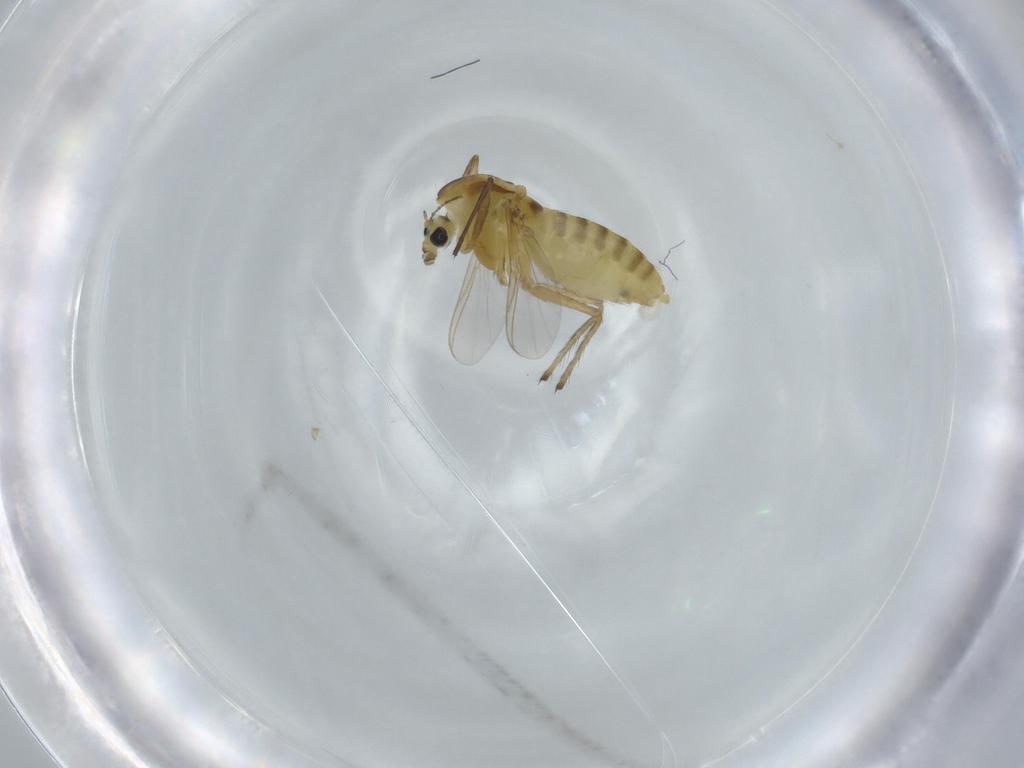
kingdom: Animalia
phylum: Arthropoda
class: Insecta
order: Diptera
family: Chironomidae
